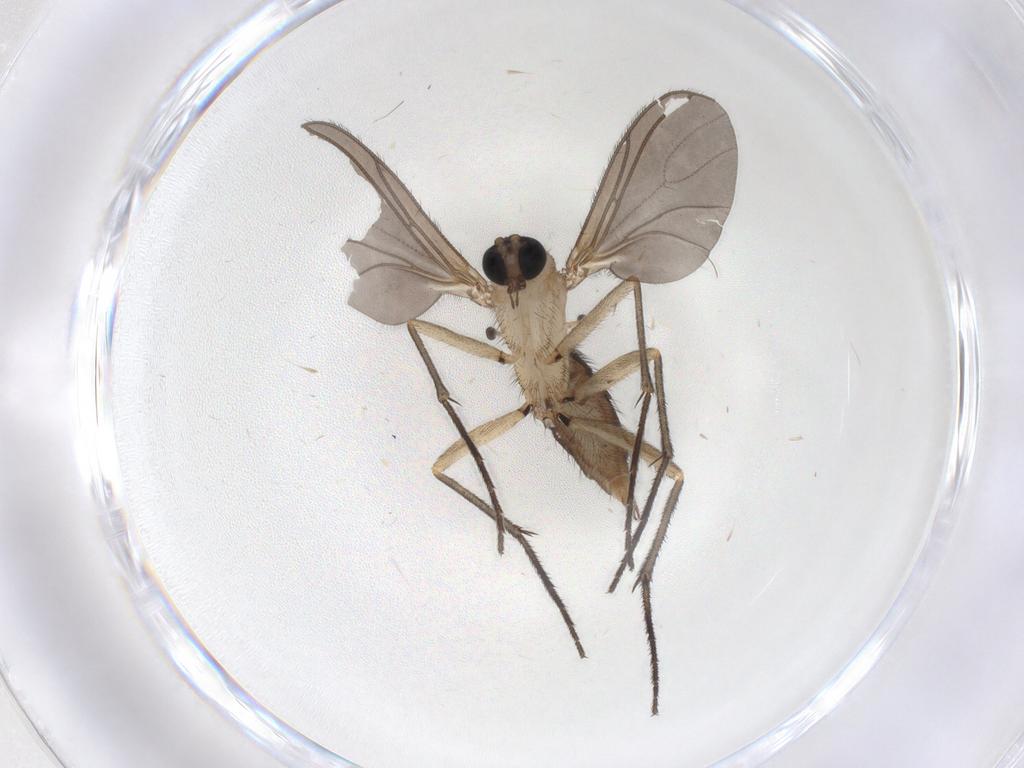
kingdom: Animalia
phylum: Arthropoda
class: Insecta
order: Diptera
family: Sciaridae
